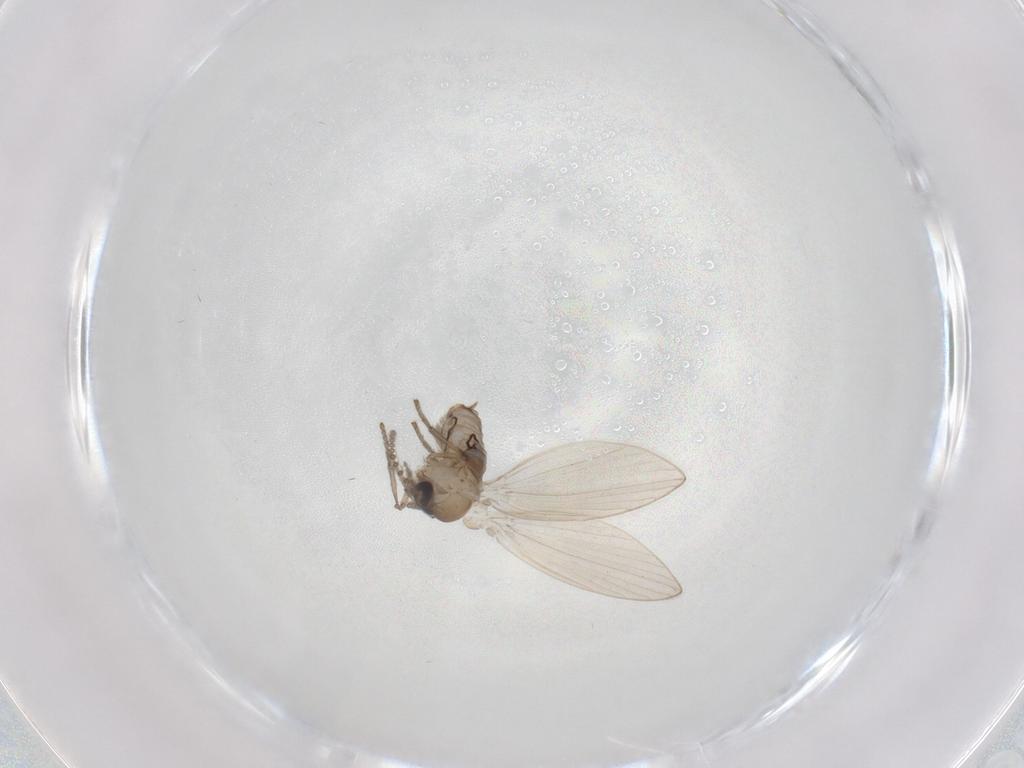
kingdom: Animalia
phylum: Arthropoda
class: Insecta
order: Diptera
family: Psychodidae
